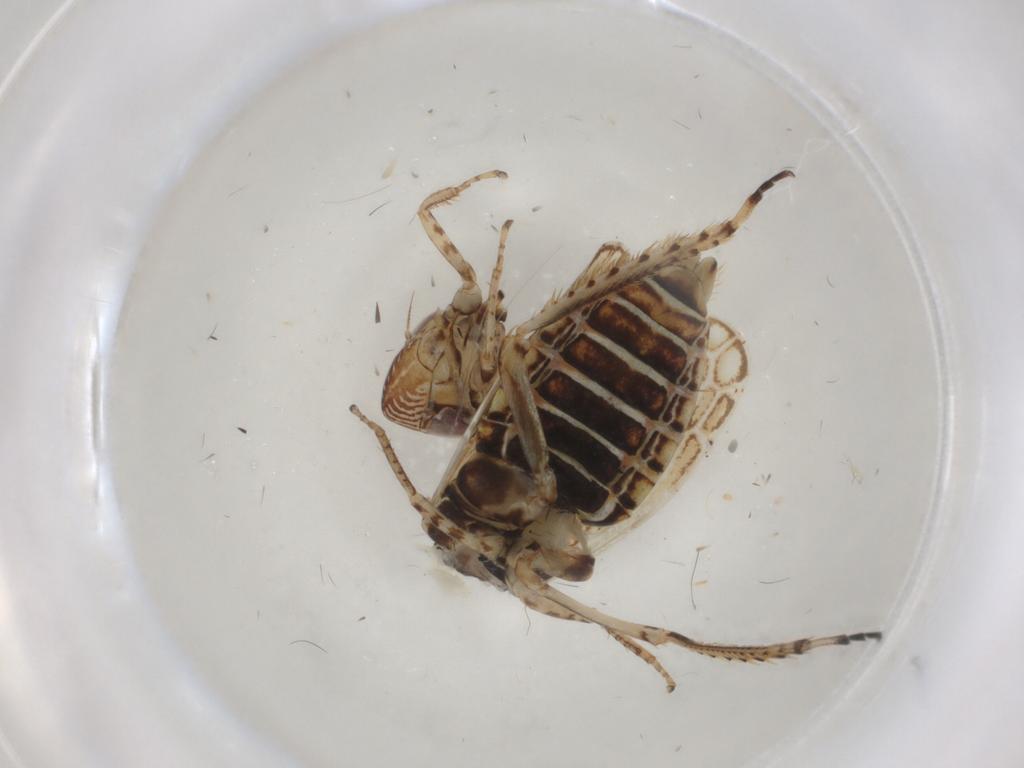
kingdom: Animalia
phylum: Arthropoda
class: Insecta
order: Hemiptera
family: Cicadellidae
